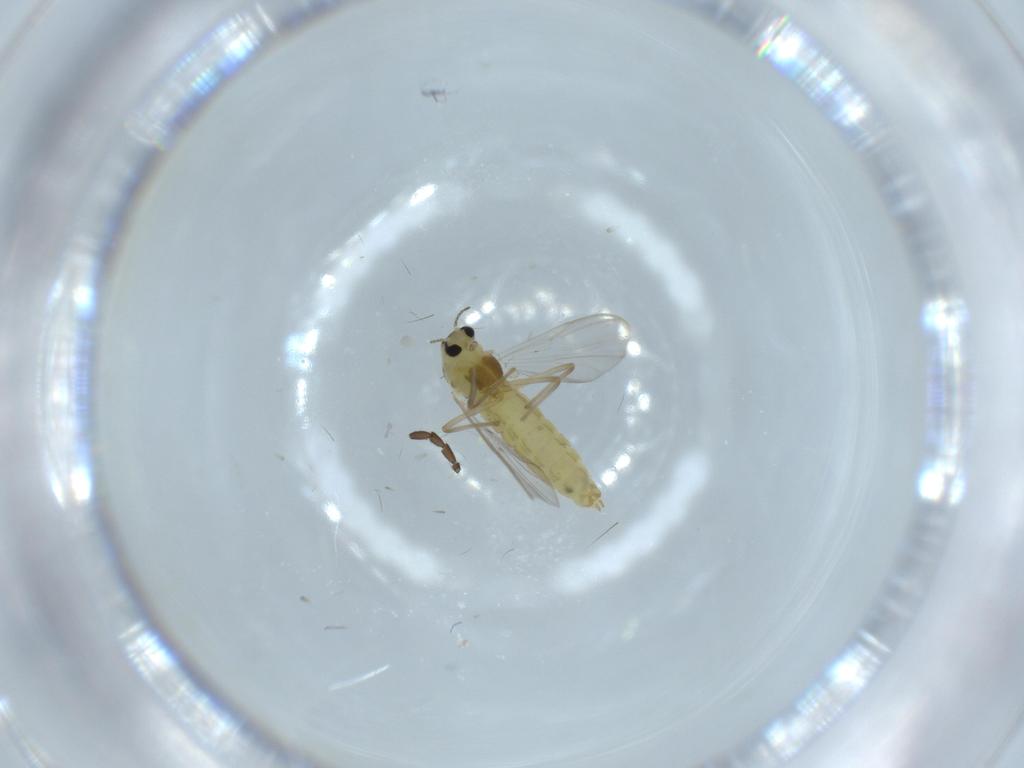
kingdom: Animalia
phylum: Arthropoda
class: Insecta
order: Diptera
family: Chironomidae
